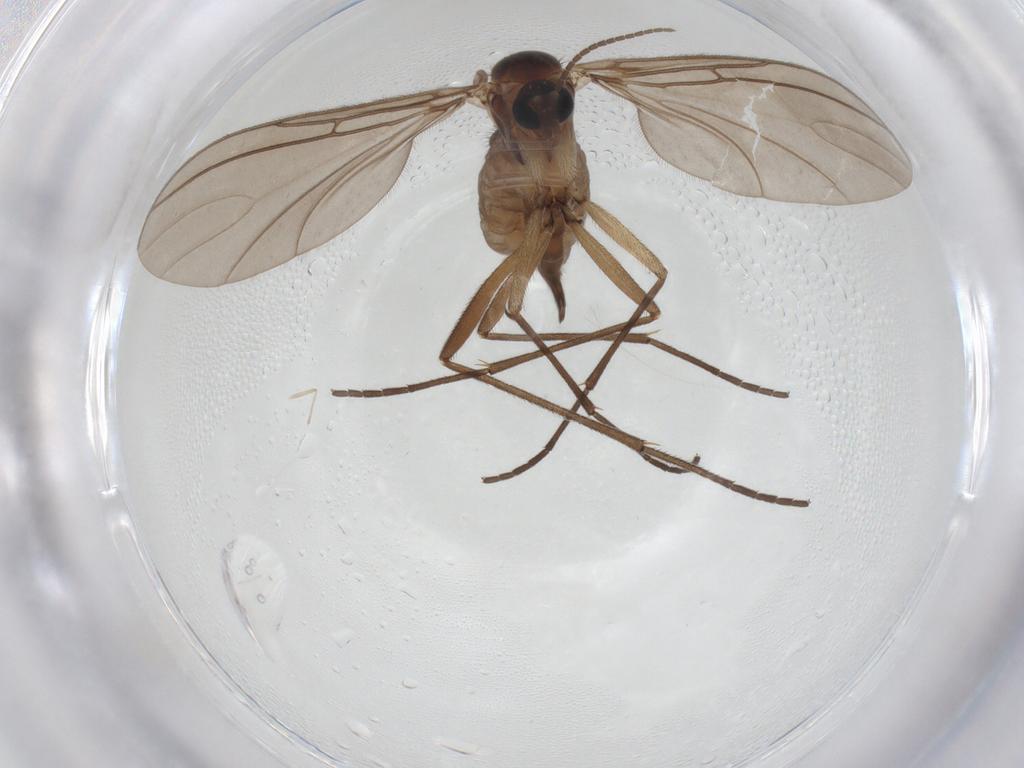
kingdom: Animalia
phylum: Arthropoda
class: Insecta
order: Diptera
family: Sciaridae
